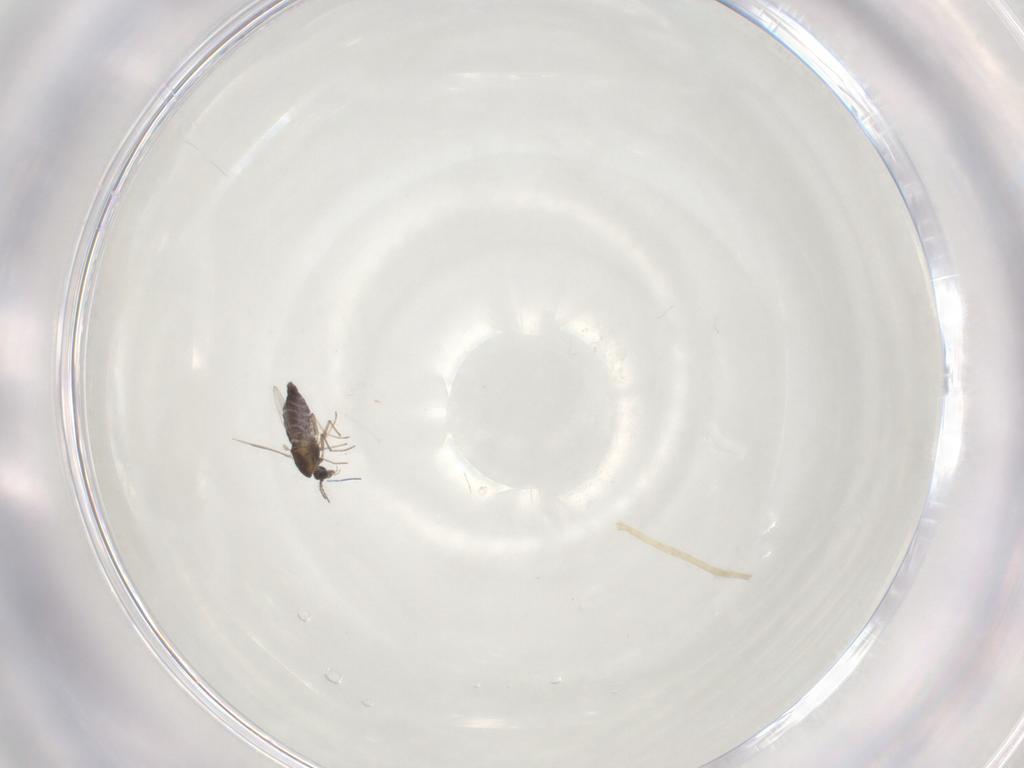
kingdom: Animalia
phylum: Arthropoda
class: Insecta
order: Diptera
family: Chironomidae
